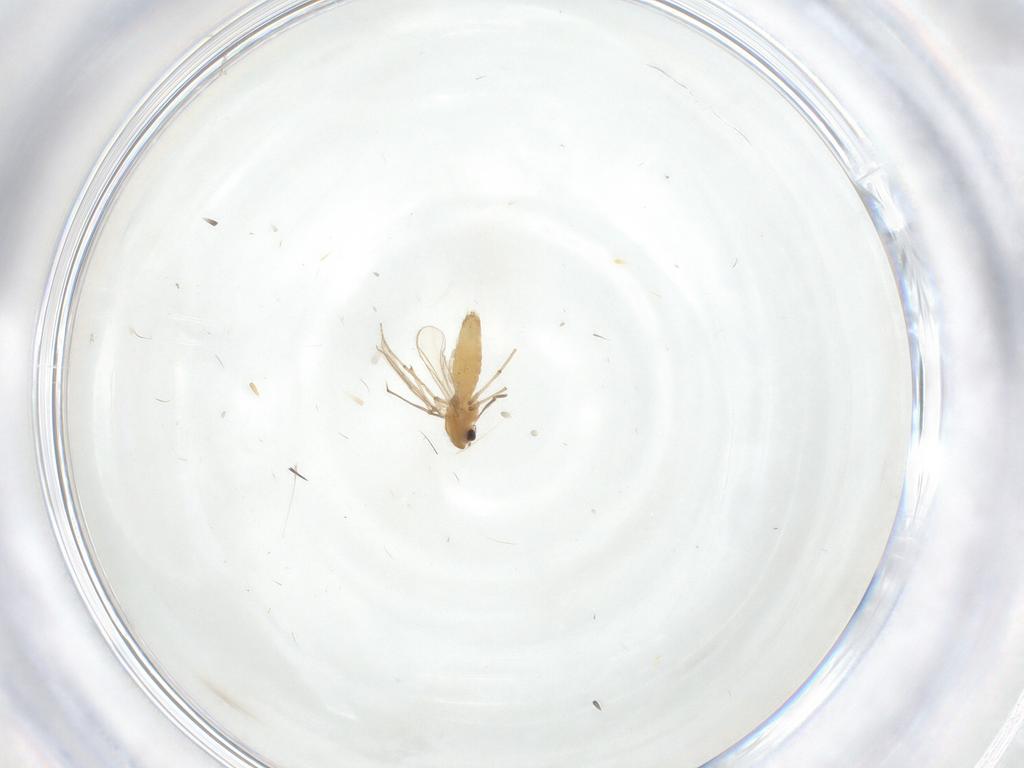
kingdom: Animalia
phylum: Arthropoda
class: Insecta
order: Diptera
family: Chironomidae
